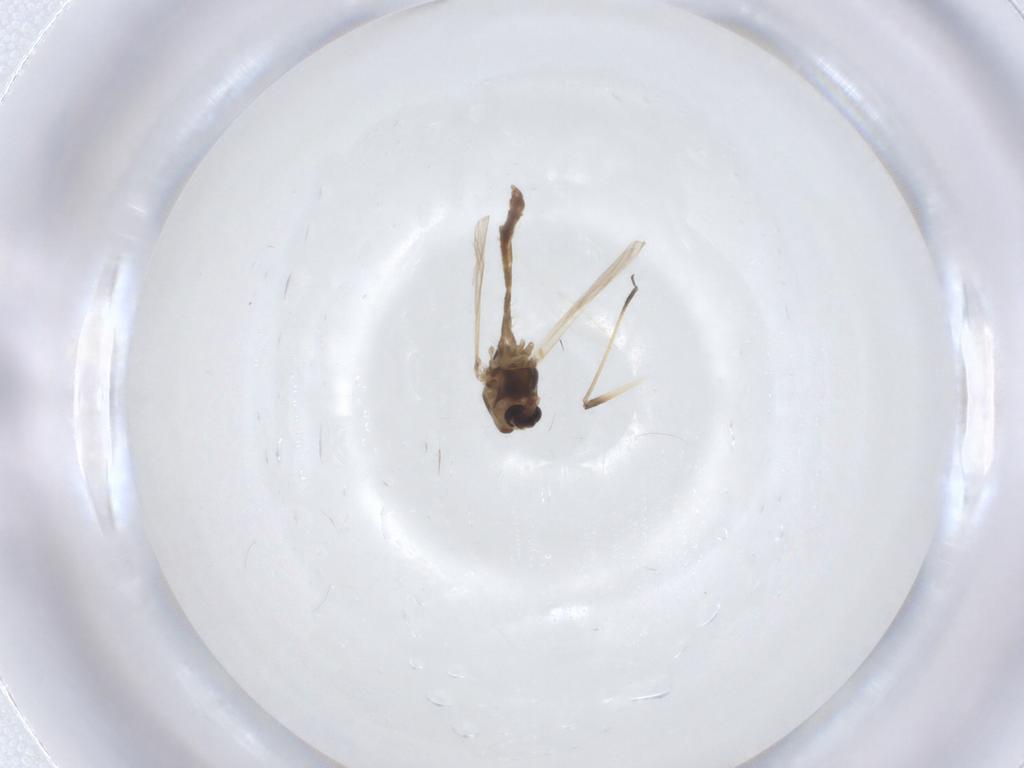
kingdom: Animalia
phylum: Arthropoda
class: Insecta
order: Diptera
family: Chironomidae
